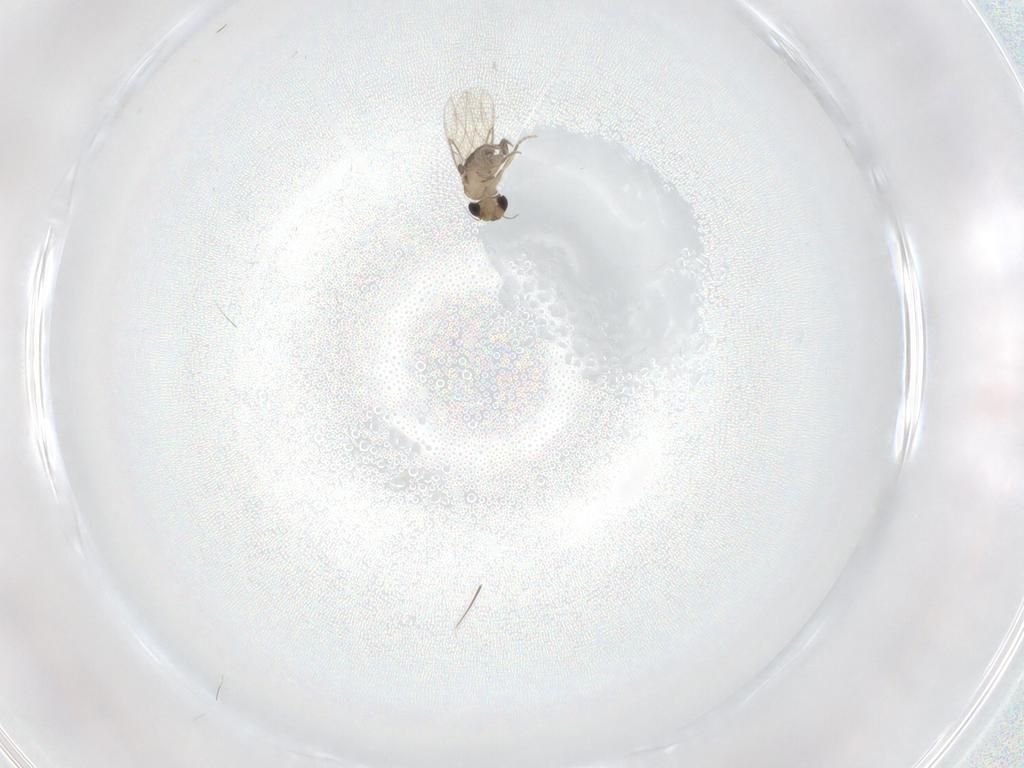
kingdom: Animalia
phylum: Arthropoda
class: Insecta
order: Diptera
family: Phoridae
